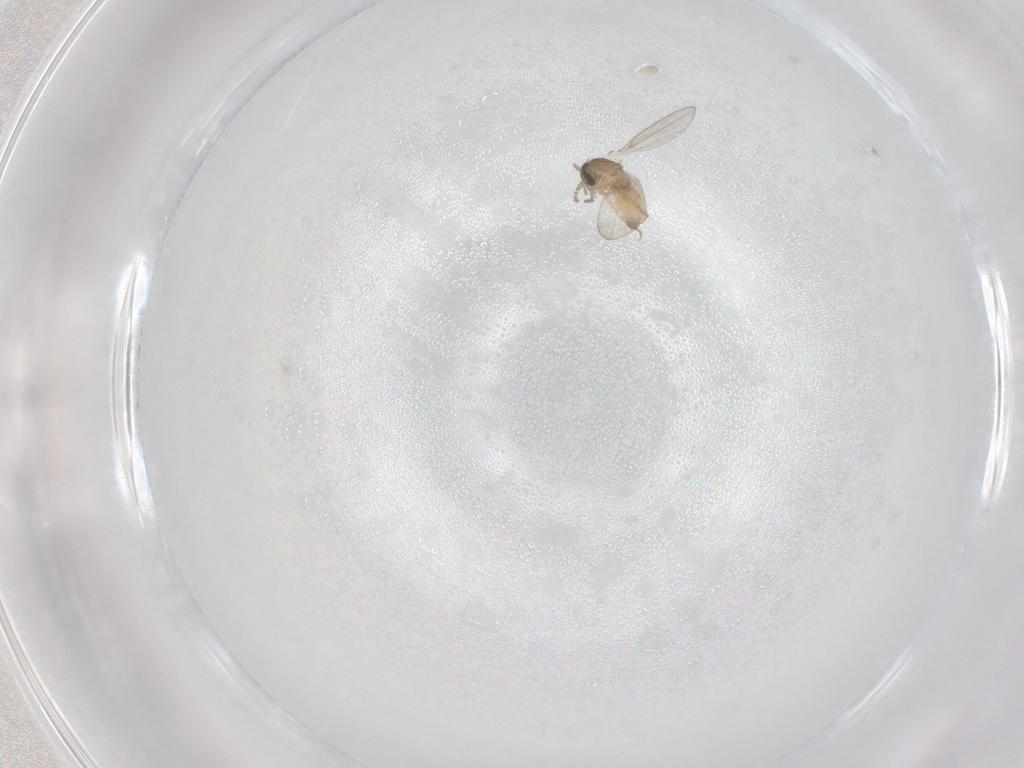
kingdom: Animalia
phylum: Arthropoda
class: Insecta
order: Diptera
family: Psychodidae
